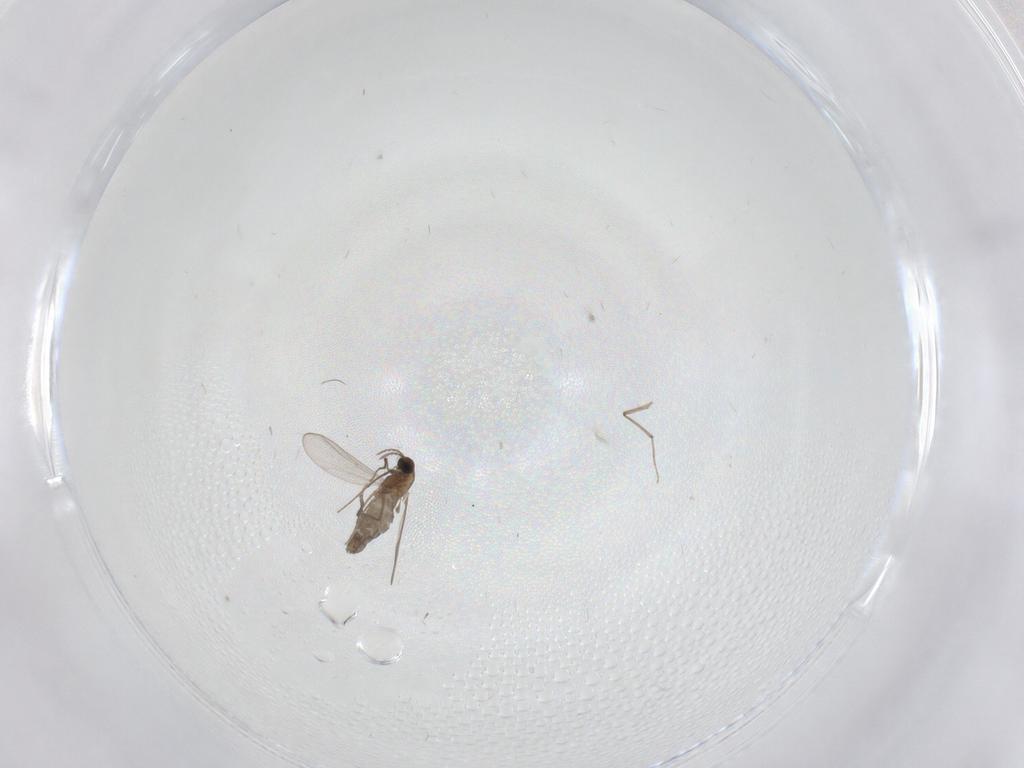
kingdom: Animalia
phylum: Arthropoda
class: Insecta
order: Diptera
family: Chironomidae
